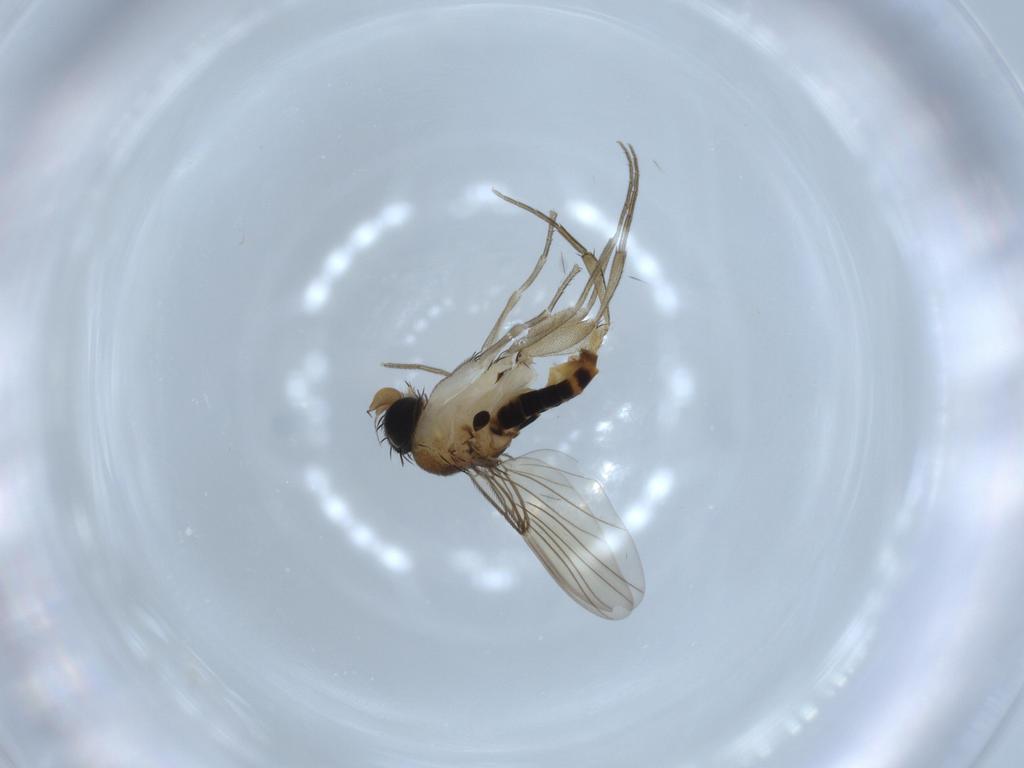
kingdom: Animalia
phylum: Arthropoda
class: Insecta
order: Diptera
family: Phoridae
